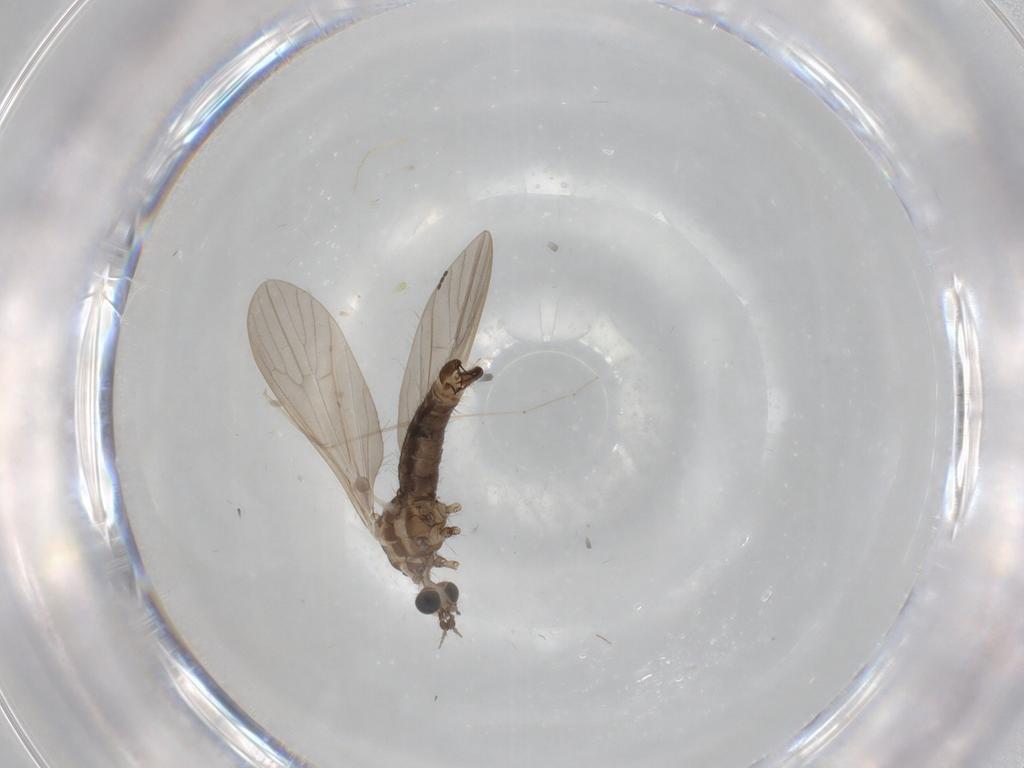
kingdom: Animalia
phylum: Arthropoda
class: Insecta
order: Diptera
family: Limoniidae
